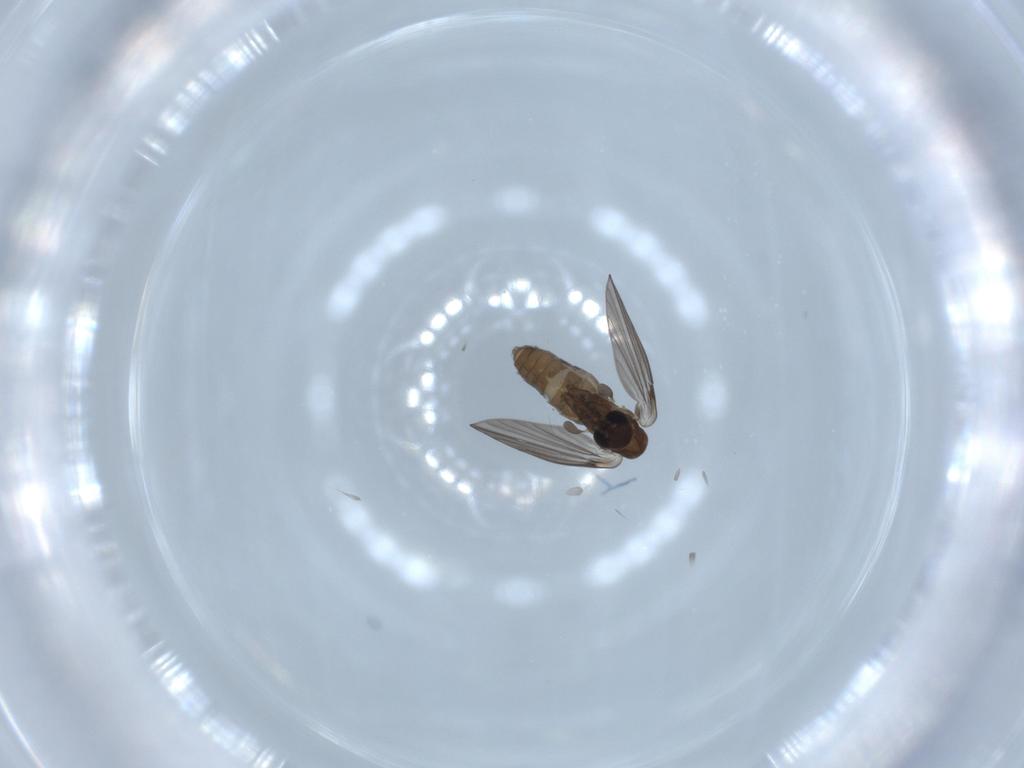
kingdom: Animalia
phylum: Arthropoda
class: Insecta
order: Diptera
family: Psychodidae
